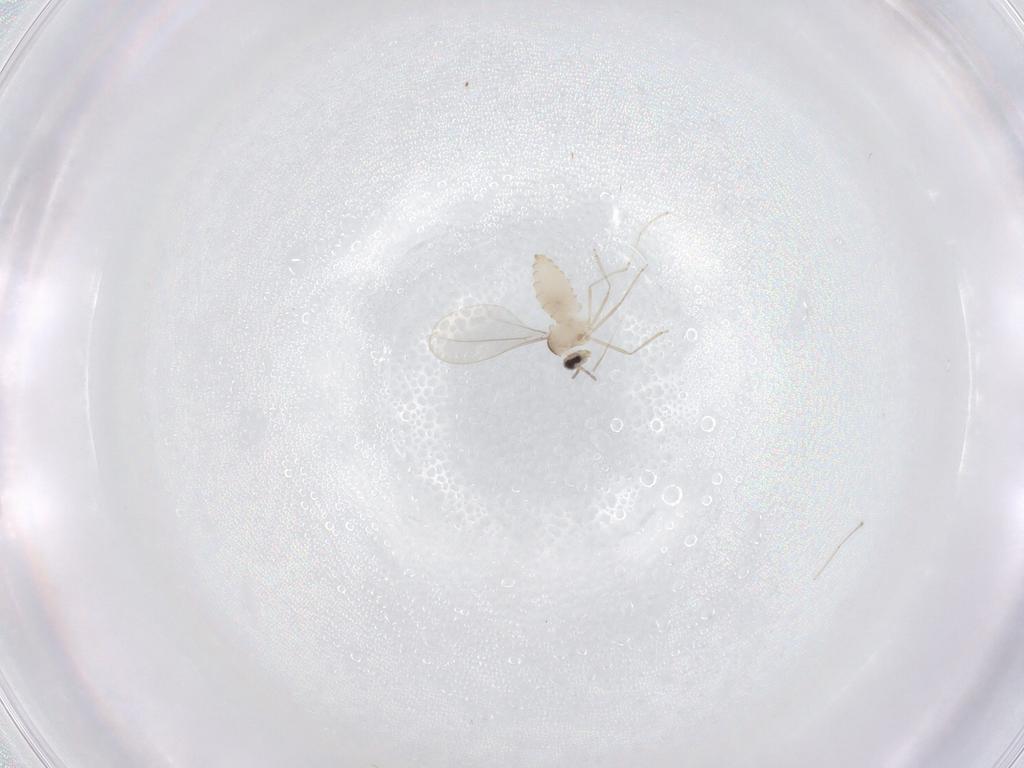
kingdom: Animalia
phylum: Arthropoda
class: Insecta
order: Diptera
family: Cecidomyiidae
